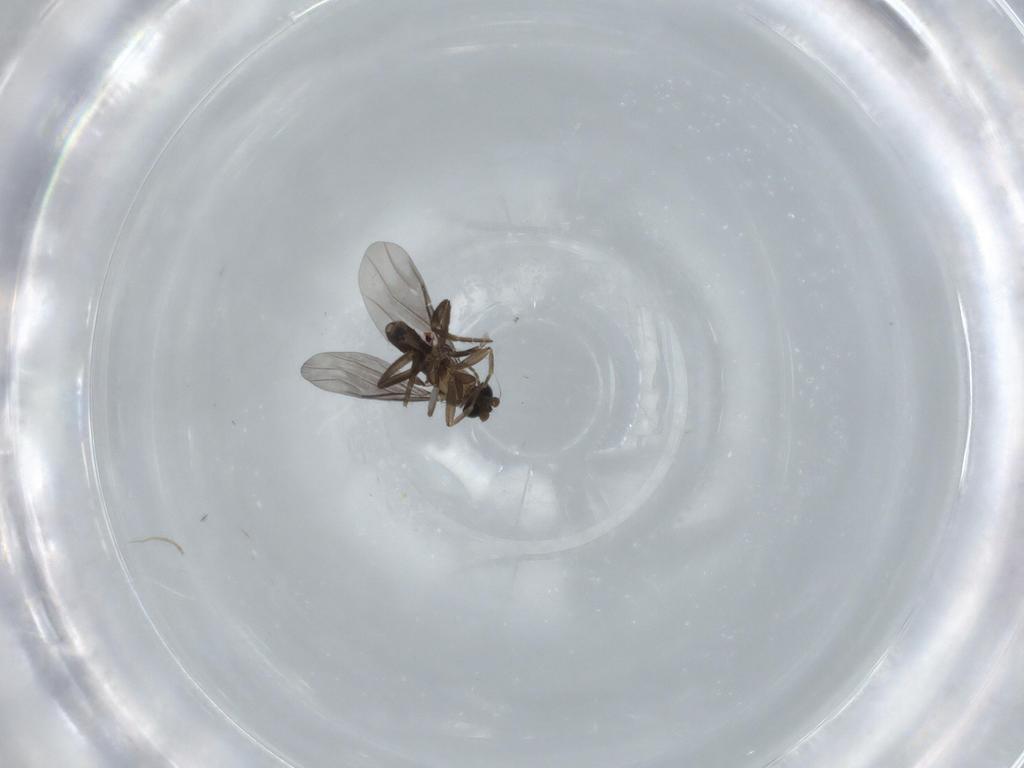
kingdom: Animalia
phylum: Arthropoda
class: Insecta
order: Diptera
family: Milichiidae
